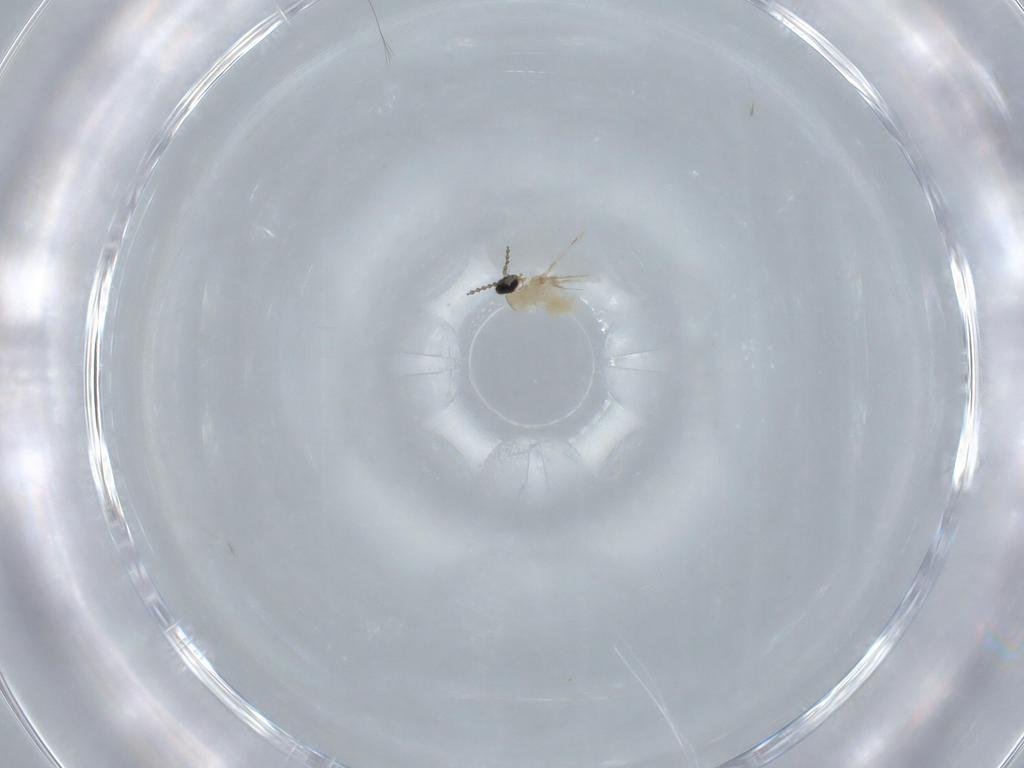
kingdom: Animalia
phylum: Arthropoda
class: Insecta
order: Diptera
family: Cecidomyiidae
